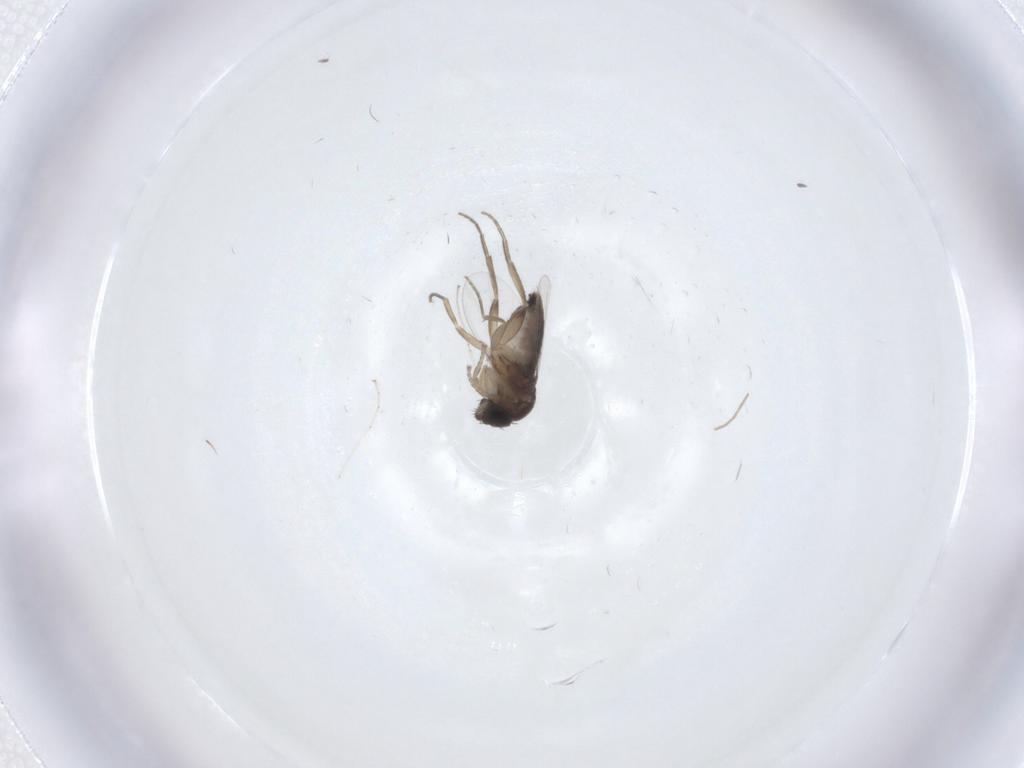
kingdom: Animalia
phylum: Arthropoda
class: Insecta
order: Diptera
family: Phoridae
